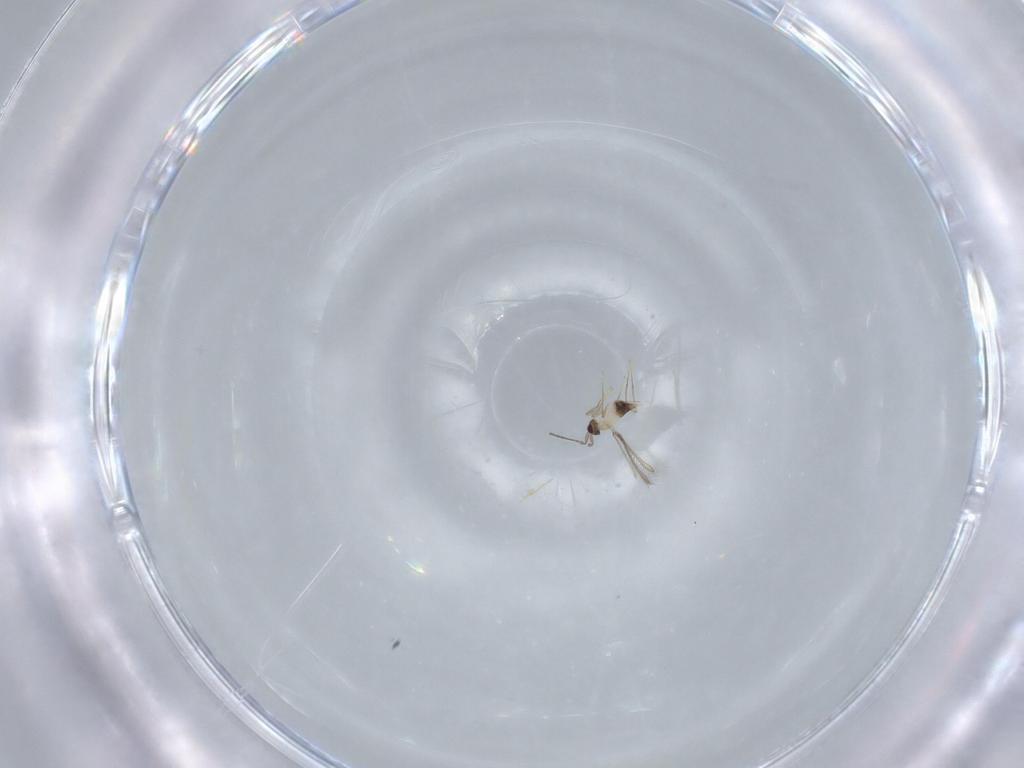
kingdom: Animalia
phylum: Arthropoda
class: Insecta
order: Hymenoptera
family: Mymaridae
